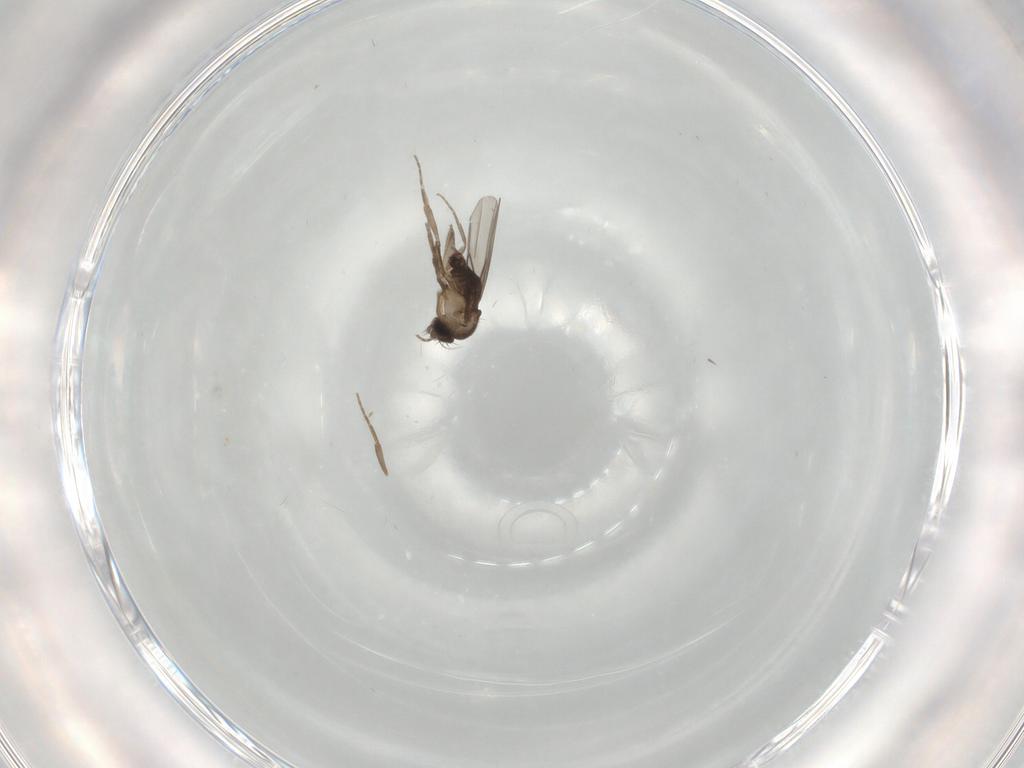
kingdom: Animalia
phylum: Arthropoda
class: Insecta
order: Diptera
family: Phoridae
